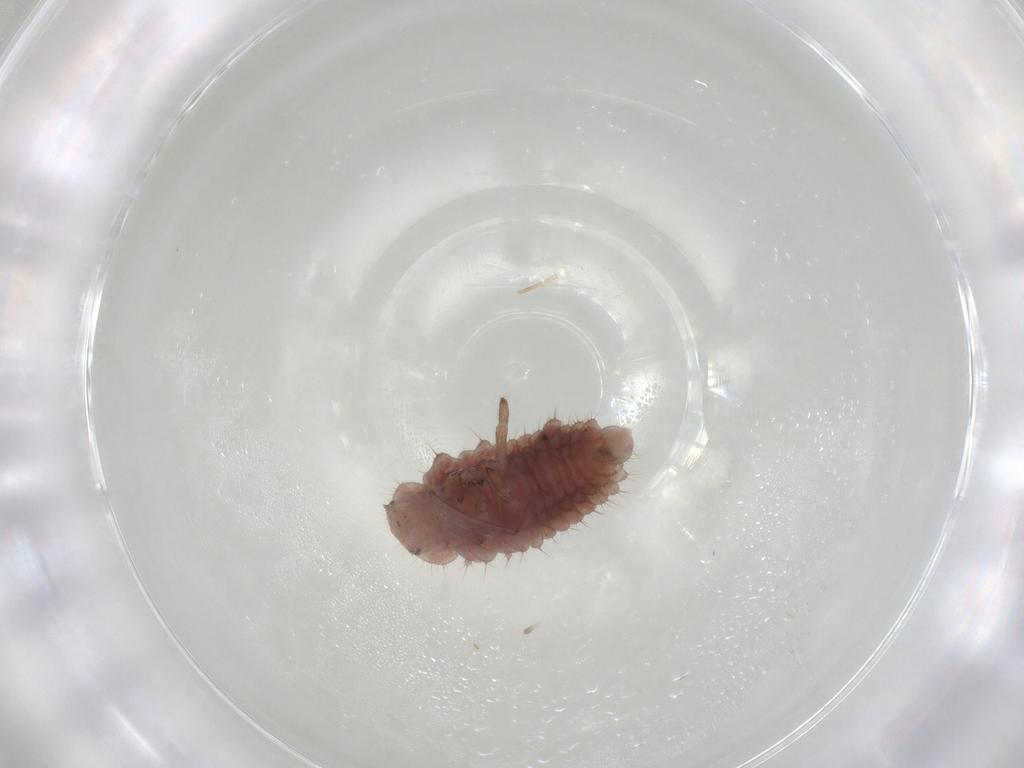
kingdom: Animalia
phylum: Arthropoda
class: Insecta
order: Coleoptera
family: Coccinellidae
